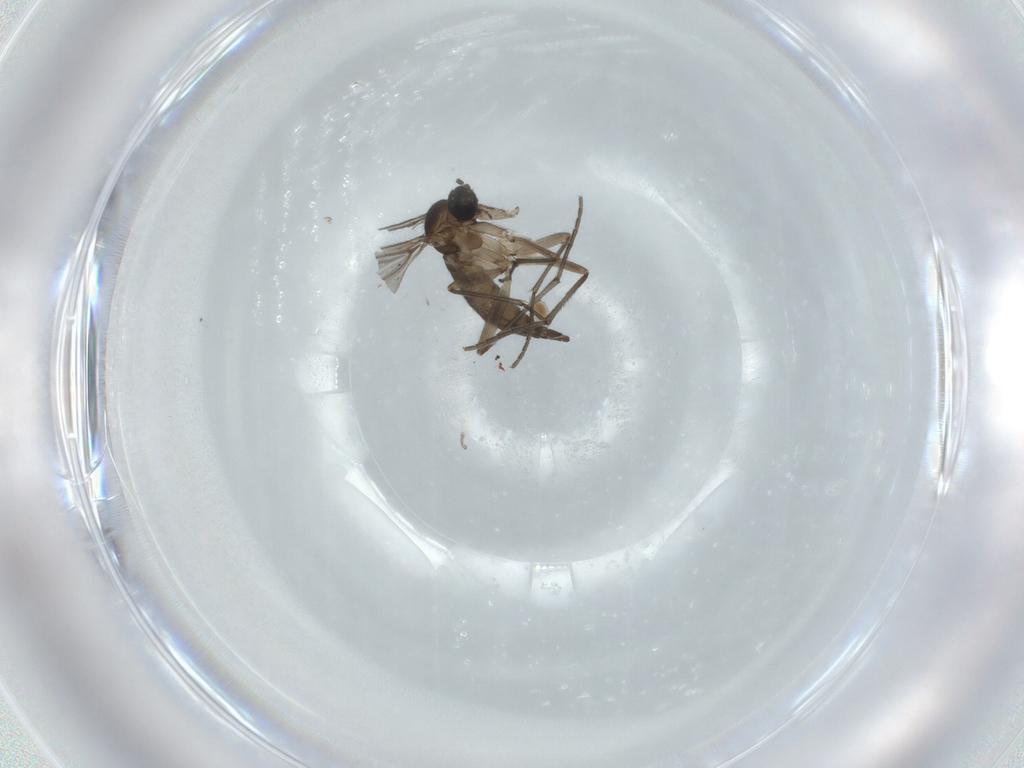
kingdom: Animalia
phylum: Arthropoda
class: Insecta
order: Diptera
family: Sciaridae
